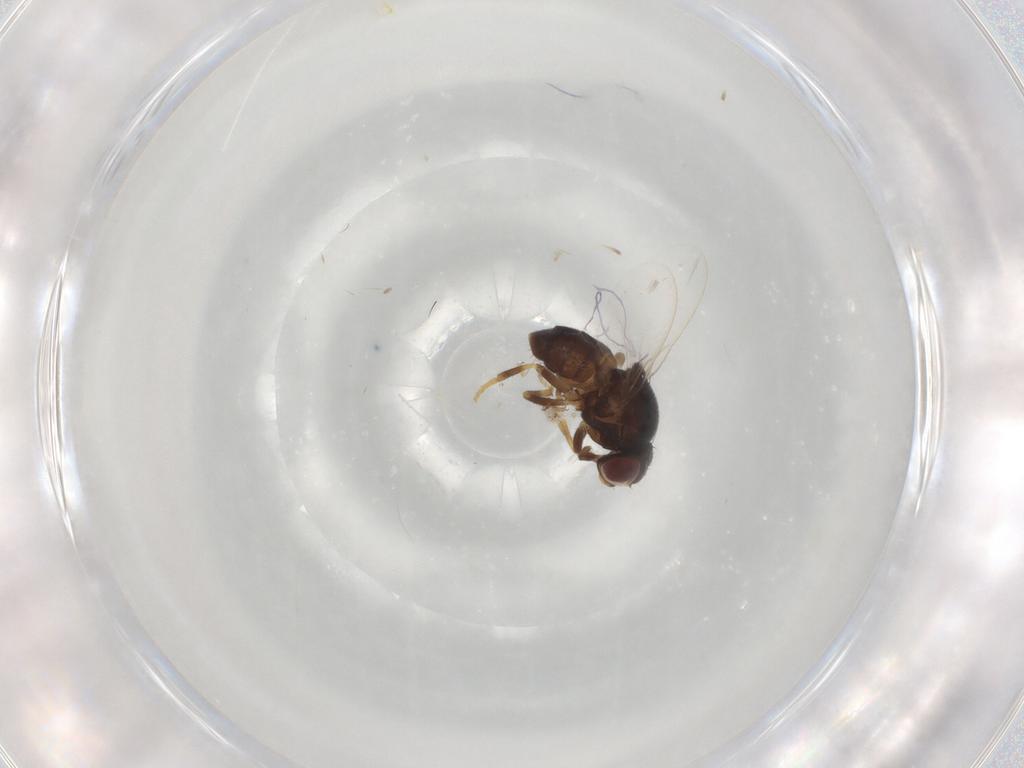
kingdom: Animalia
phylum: Arthropoda
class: Insecta
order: Diptera
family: Chloropidae
